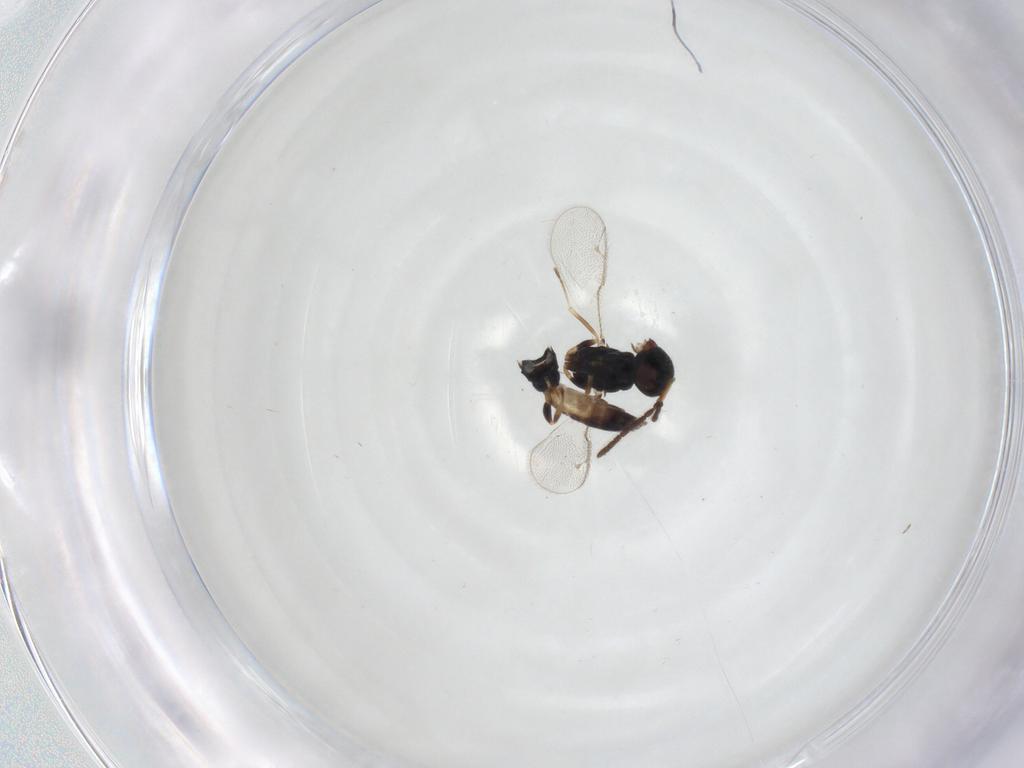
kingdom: Animalia
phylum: Arthropoda
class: Insecta
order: Hymenoptera
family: Pteromalidae
